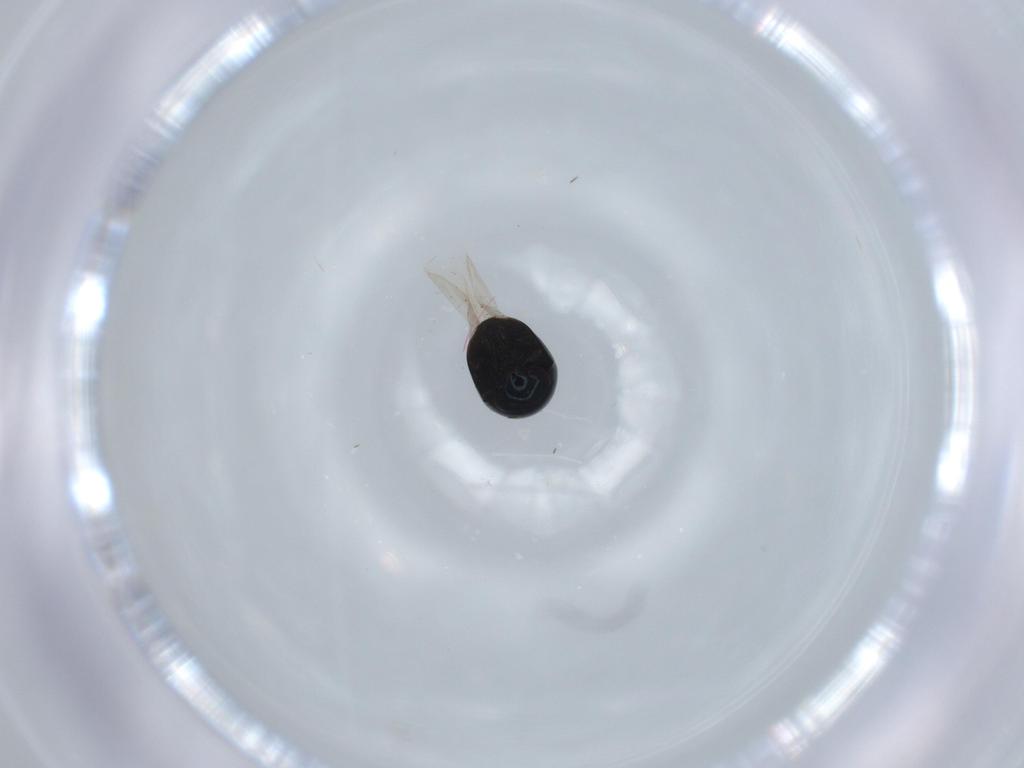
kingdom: Animalia
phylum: Arthropoda
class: Insecta
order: Coleoptera
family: Cybocephalidae
